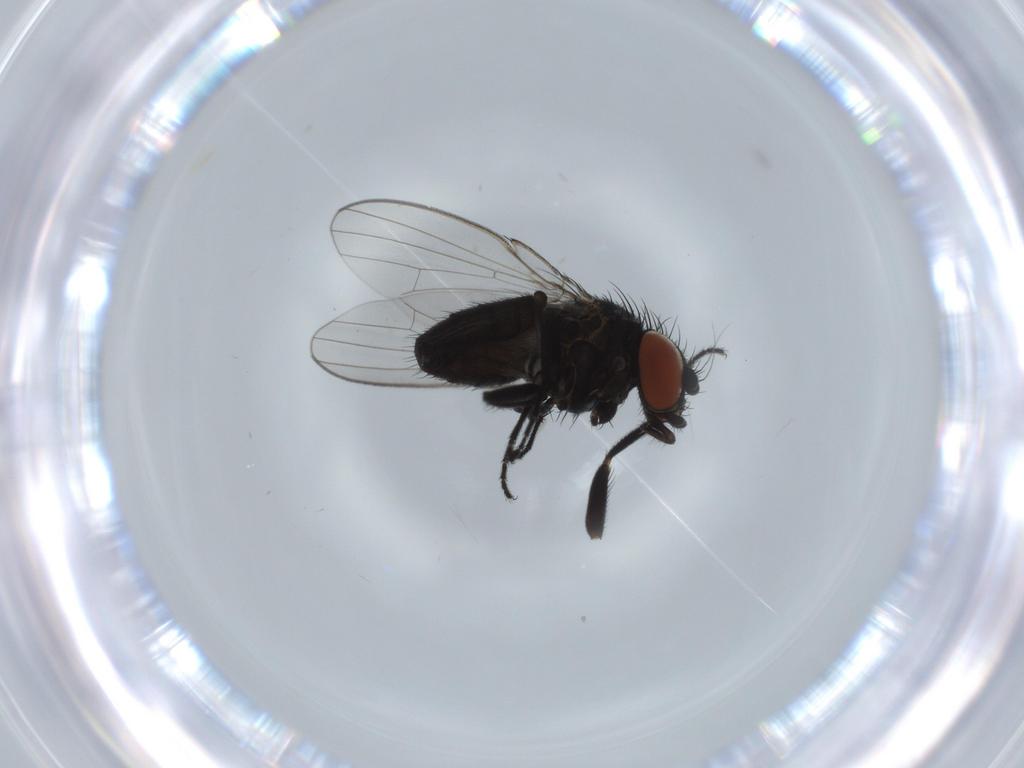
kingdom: Animalia
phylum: Arthropoda
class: Insecta
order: Diptera
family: Milichiidae
